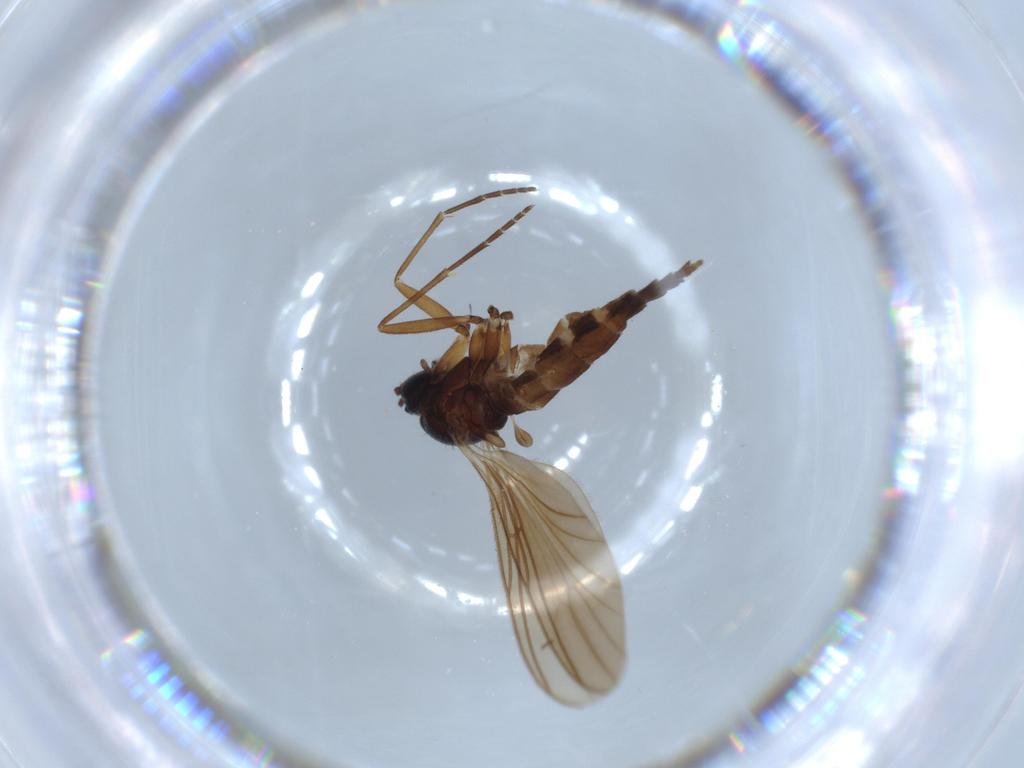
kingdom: Animalia
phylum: Arthropoda
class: Insecta
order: Diptera
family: Sciaridae
